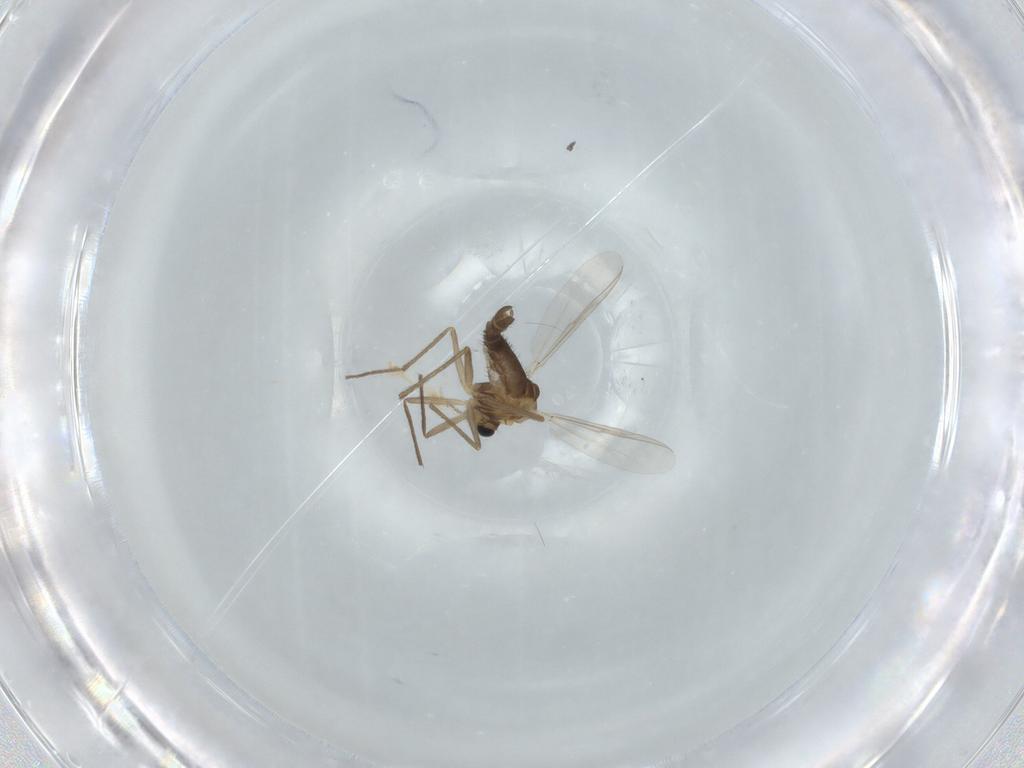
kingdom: Animalia
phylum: Arthropoda
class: Insecta
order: Diptera
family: Chironomidae
